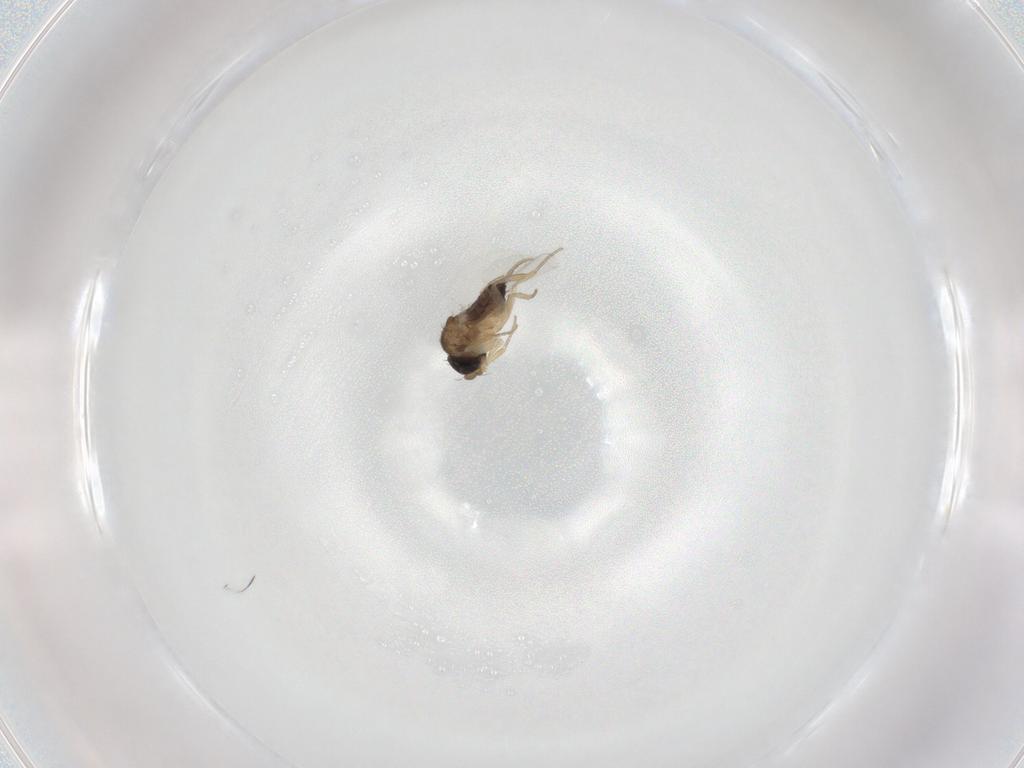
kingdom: Animalia
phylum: Arthropoda
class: Insecta
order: Diptera
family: Phoridae
